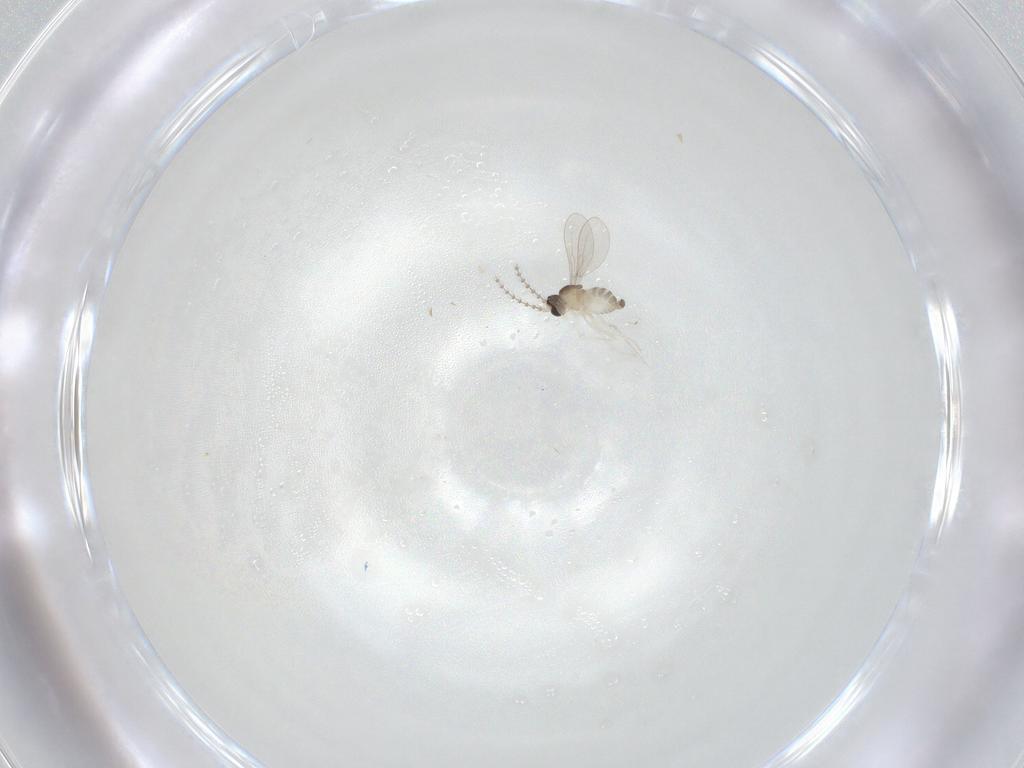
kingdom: Animalia
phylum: Arthropoda
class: Insecta
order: Diptera
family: Cecidomyiidae
